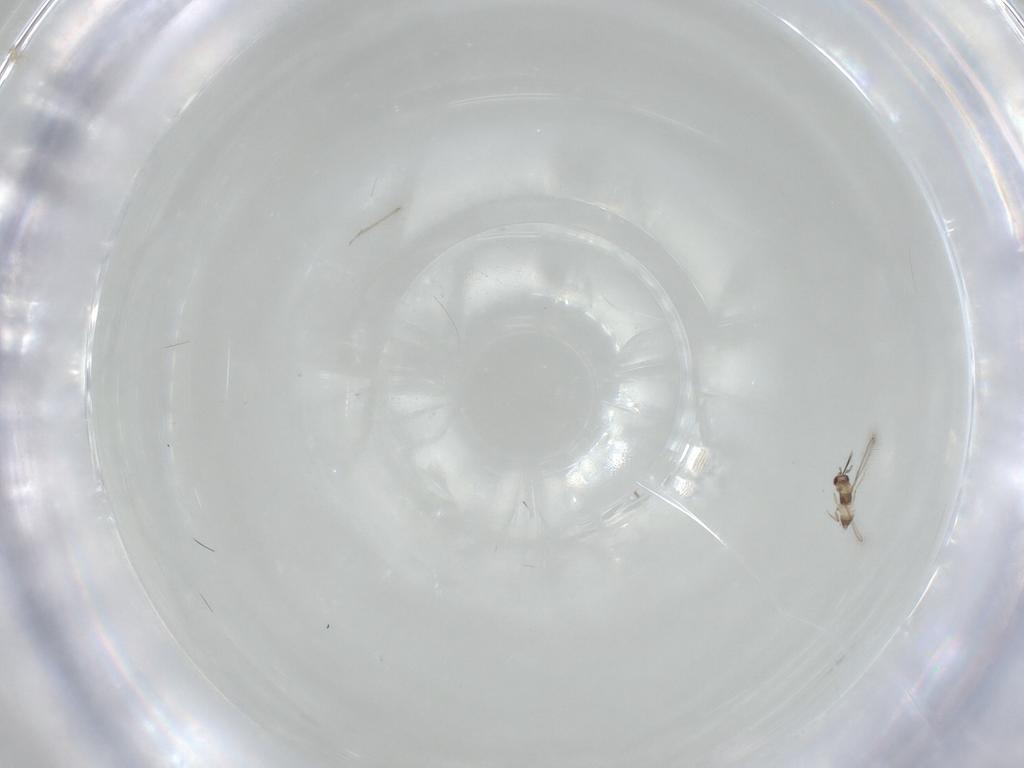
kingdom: Animalia
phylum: Arthropoda
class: Insecta
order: Hymenoptera
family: Mymaridae
